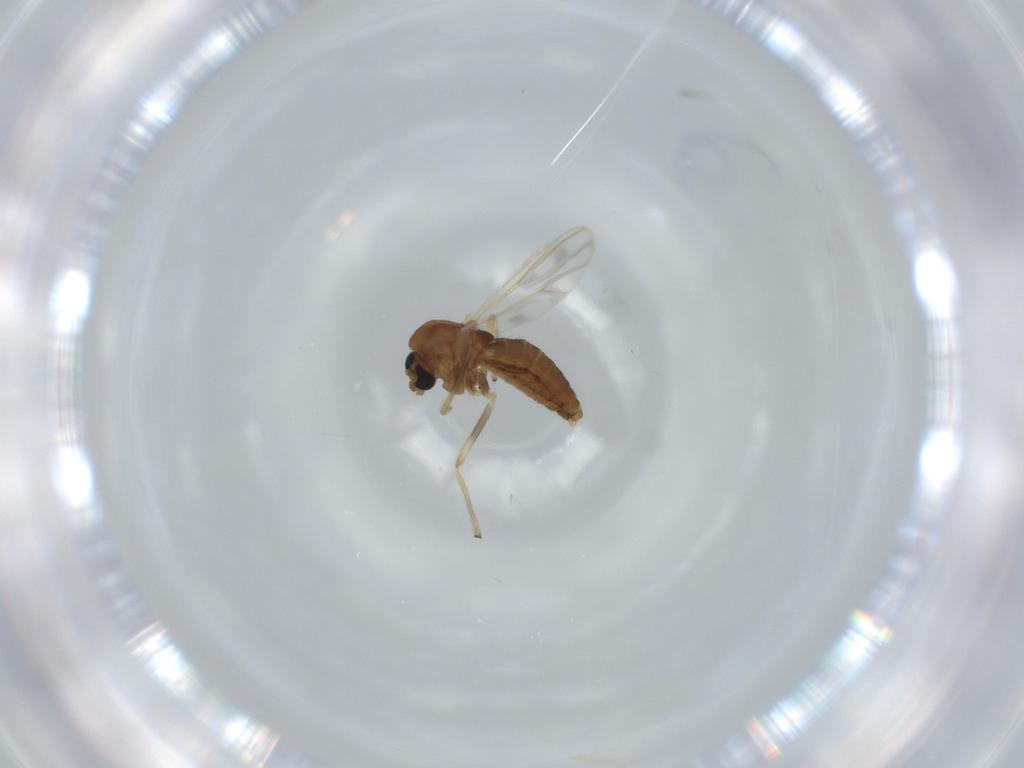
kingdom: Animalia
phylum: Arthropoda
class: Insecta
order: Diptera
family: Chironomidae
